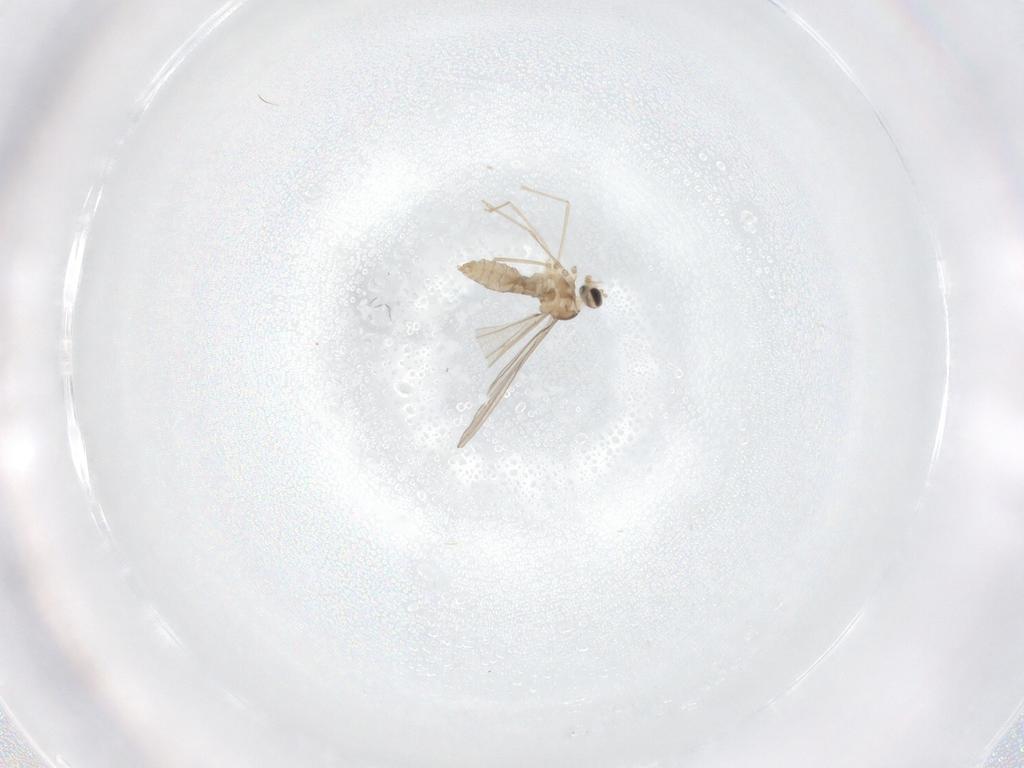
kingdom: Animalia
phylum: Arthropoda
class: Insecta
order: Diptera
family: Cecidomyiidae
